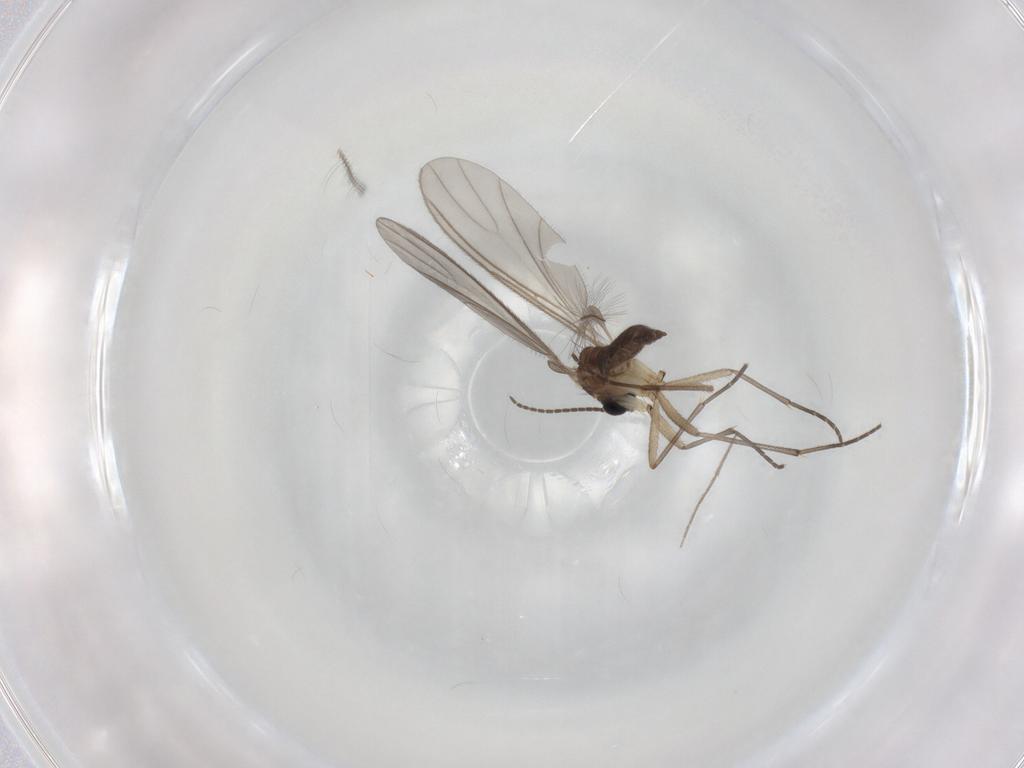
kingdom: Animalia
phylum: Arthropoda
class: Insecta
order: Diptera
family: Sciaridae
